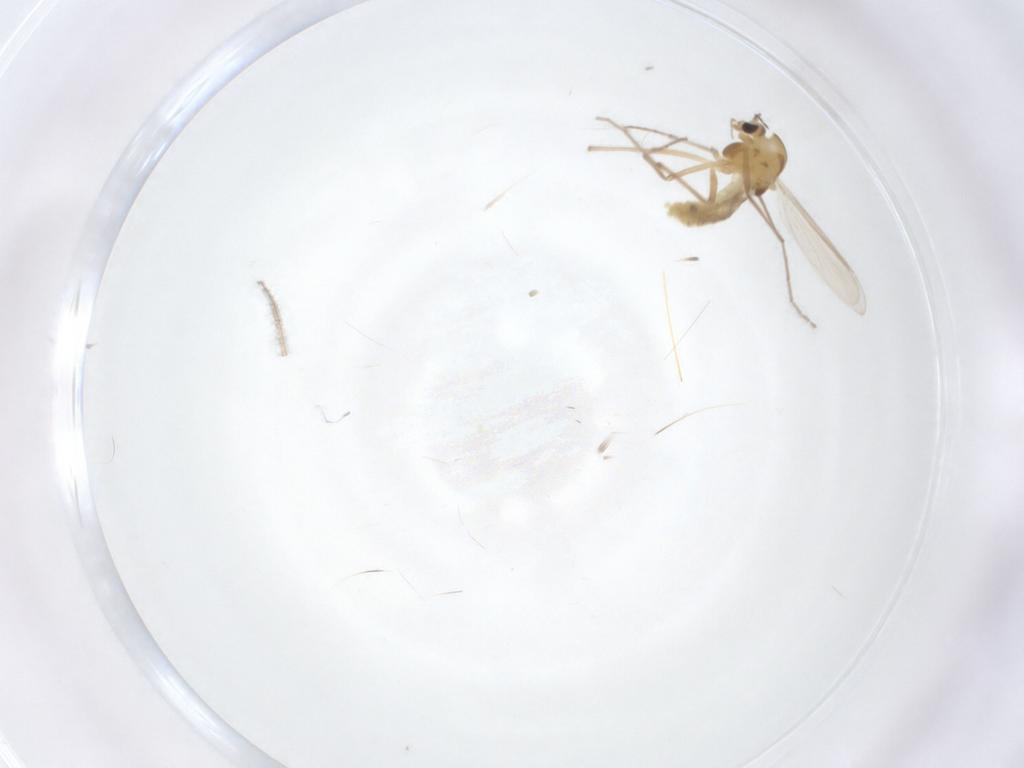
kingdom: Animalia
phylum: Arthropoda
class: Insecta
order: Diptera
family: Chironomidae
